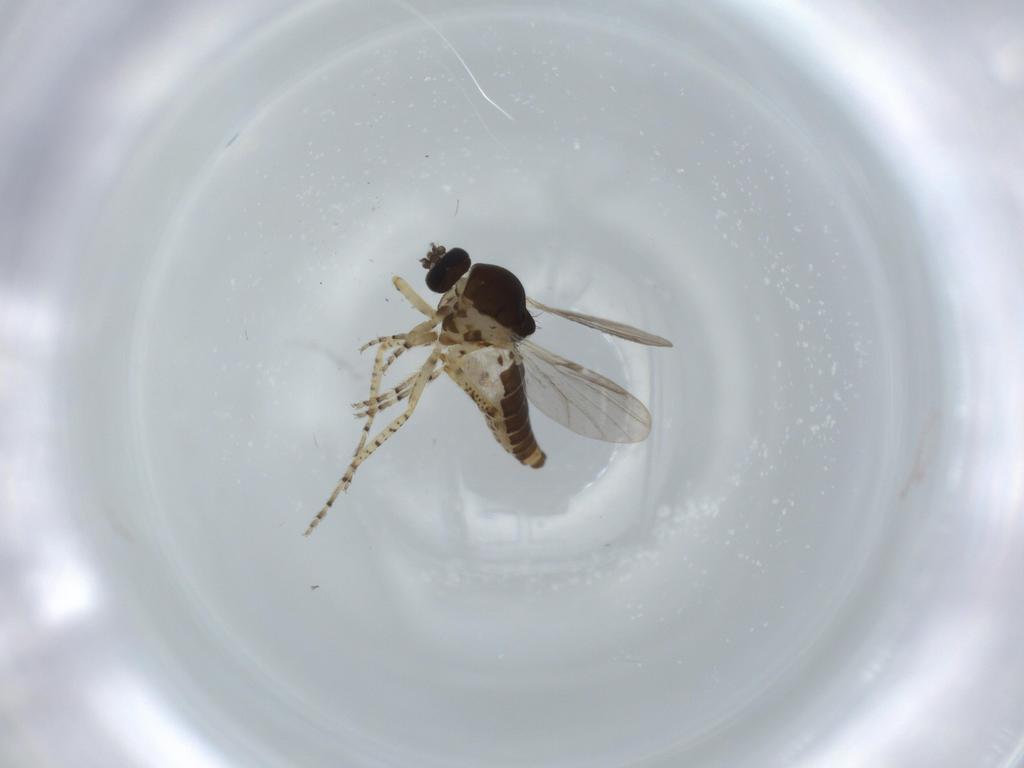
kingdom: Animalia
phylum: Arthropoda
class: Insecta
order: Diptera
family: Ceratopogonidae
